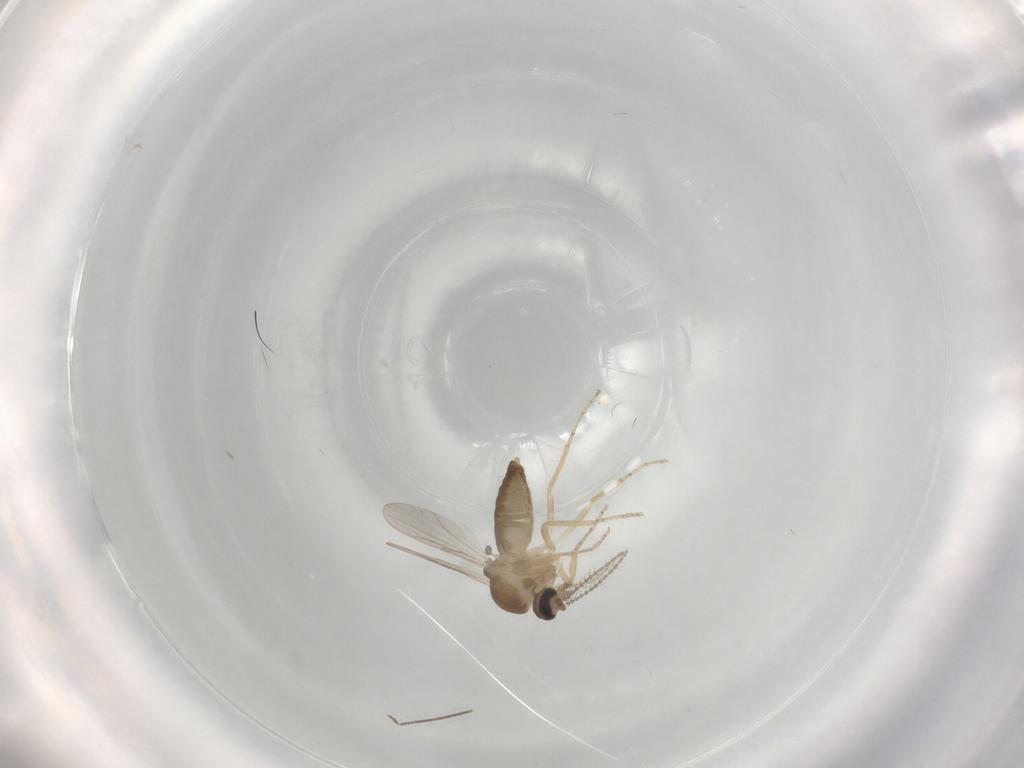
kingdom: Animalia
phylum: Arthropoda
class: Insecta
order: Diptera
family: Ceratopogonidae
